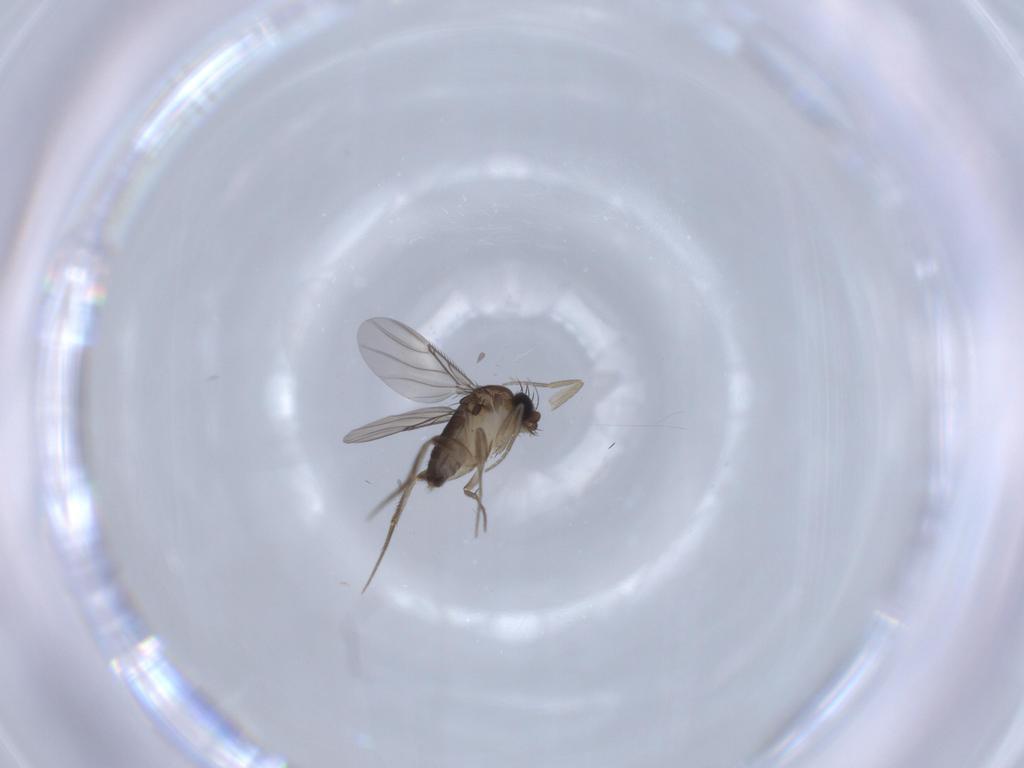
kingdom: Animalia
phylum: Arthropoda
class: Insecta
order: Diptera
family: Phoridae
